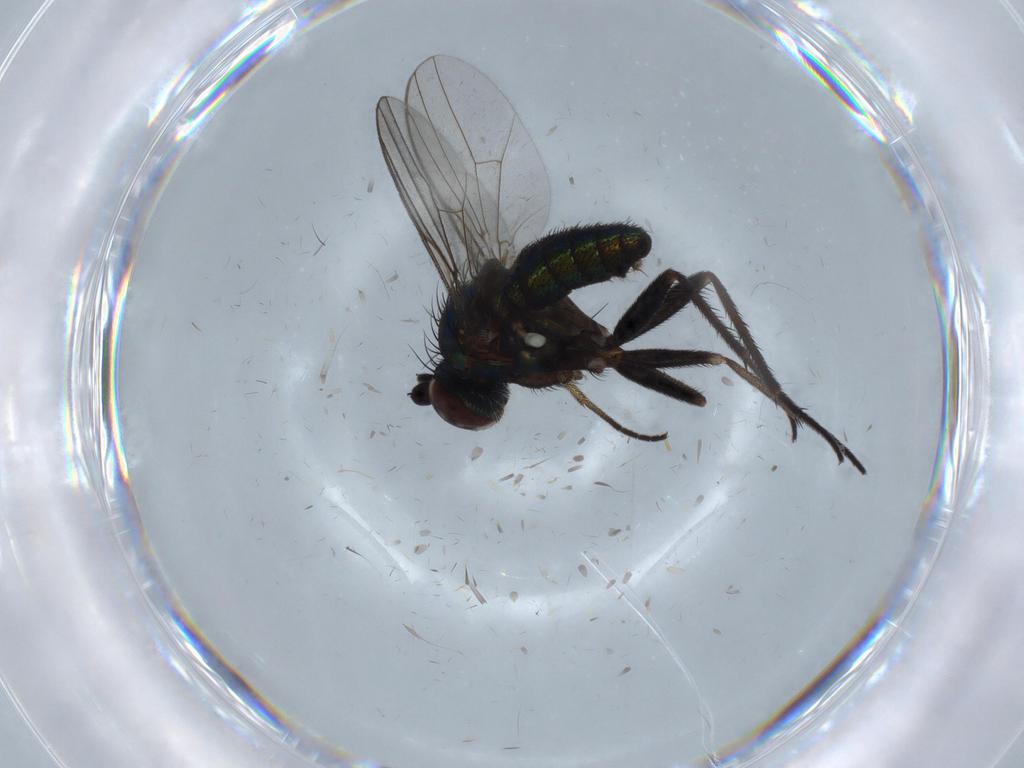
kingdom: Animalia
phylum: Arthropoda
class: Insecta
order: Diptera
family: Dolichopodidae
